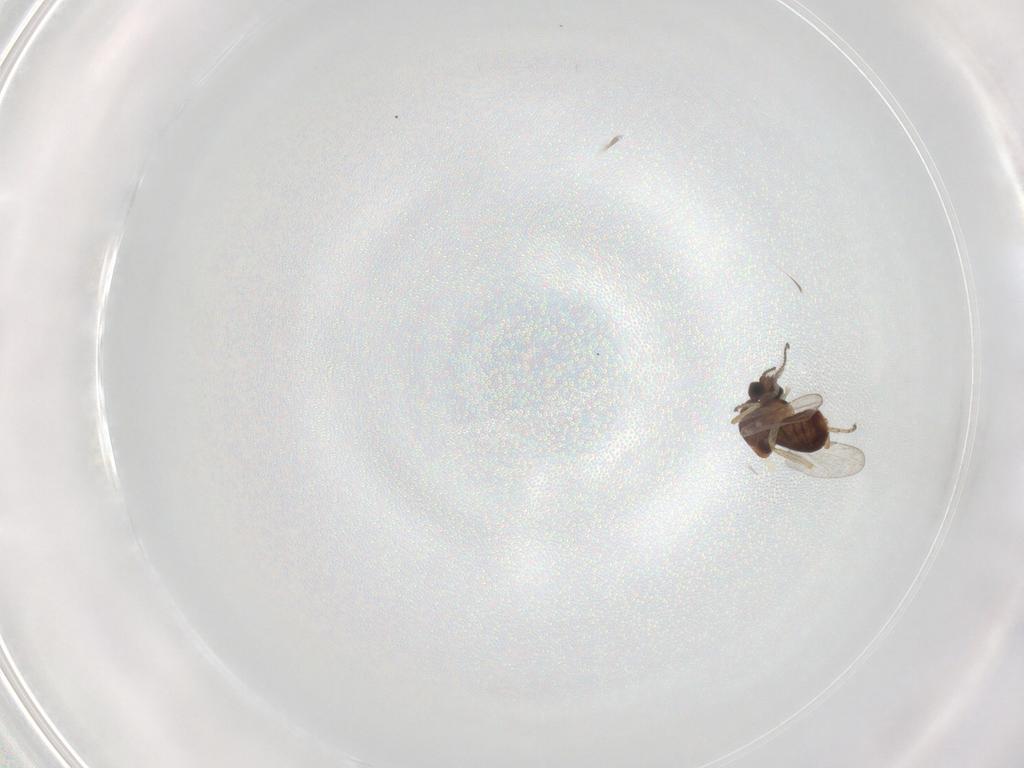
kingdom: Animalia
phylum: Arthropoda
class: Insecta
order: Diptera
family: Ceratopogonidae
